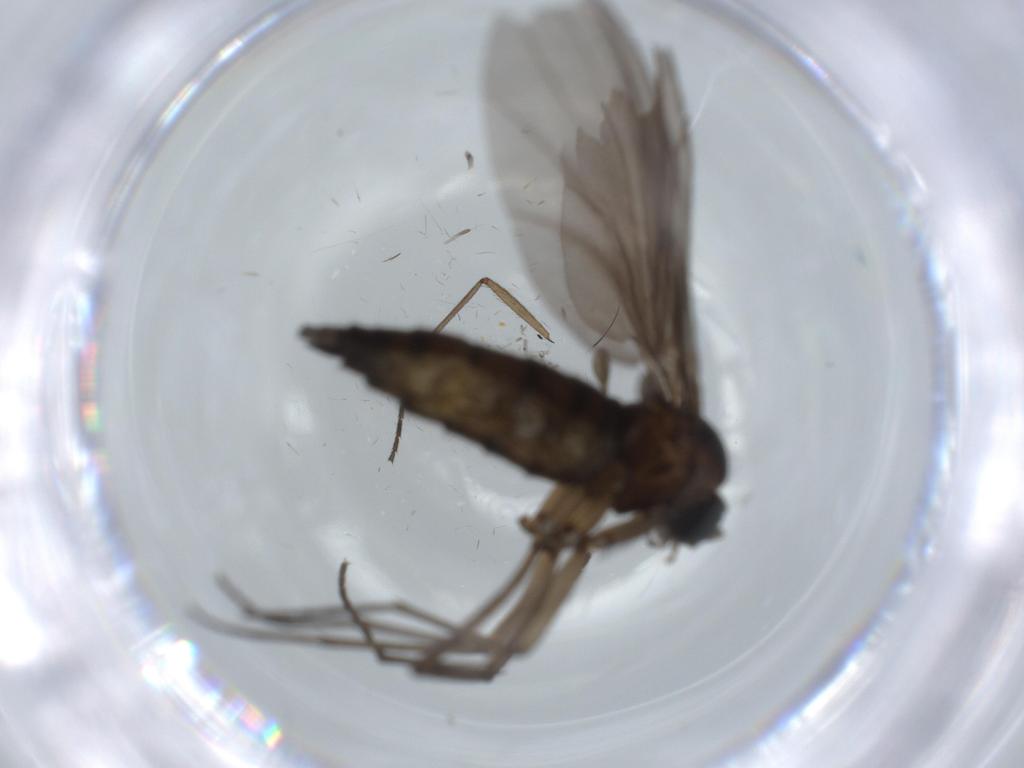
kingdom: Animalia
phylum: Arthropoda
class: Insecta
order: Diptera
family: Sciaridae
